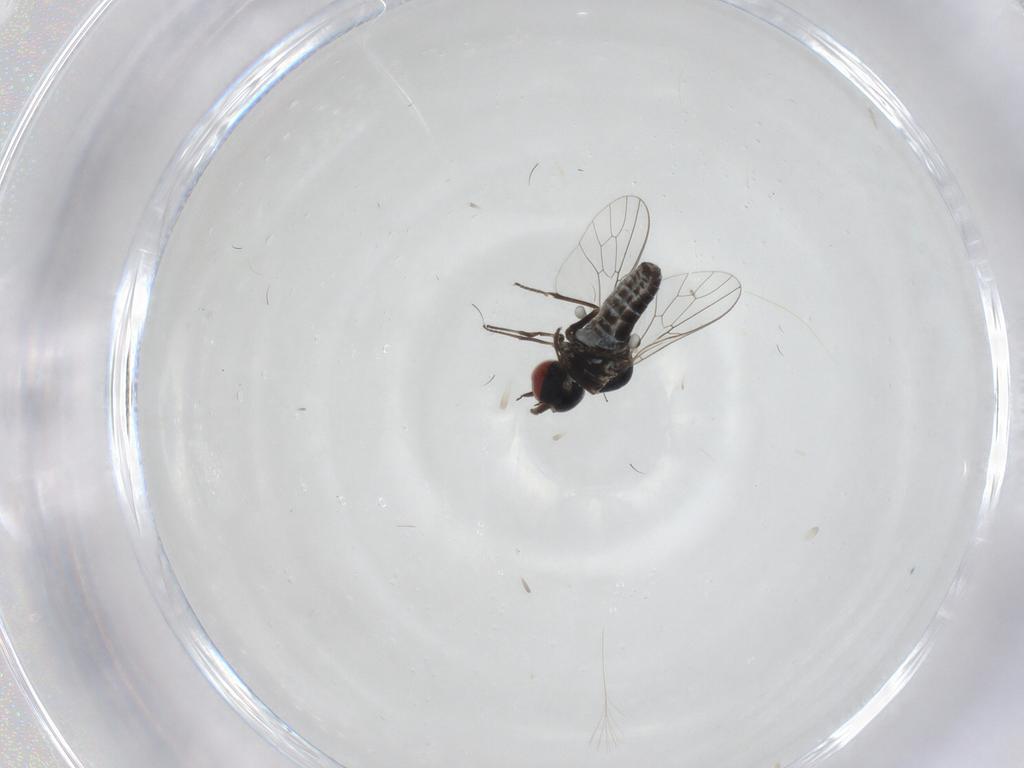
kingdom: Animalia
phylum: Arthropoda
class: Insecta
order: Diptera
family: Mythicomyiidae
